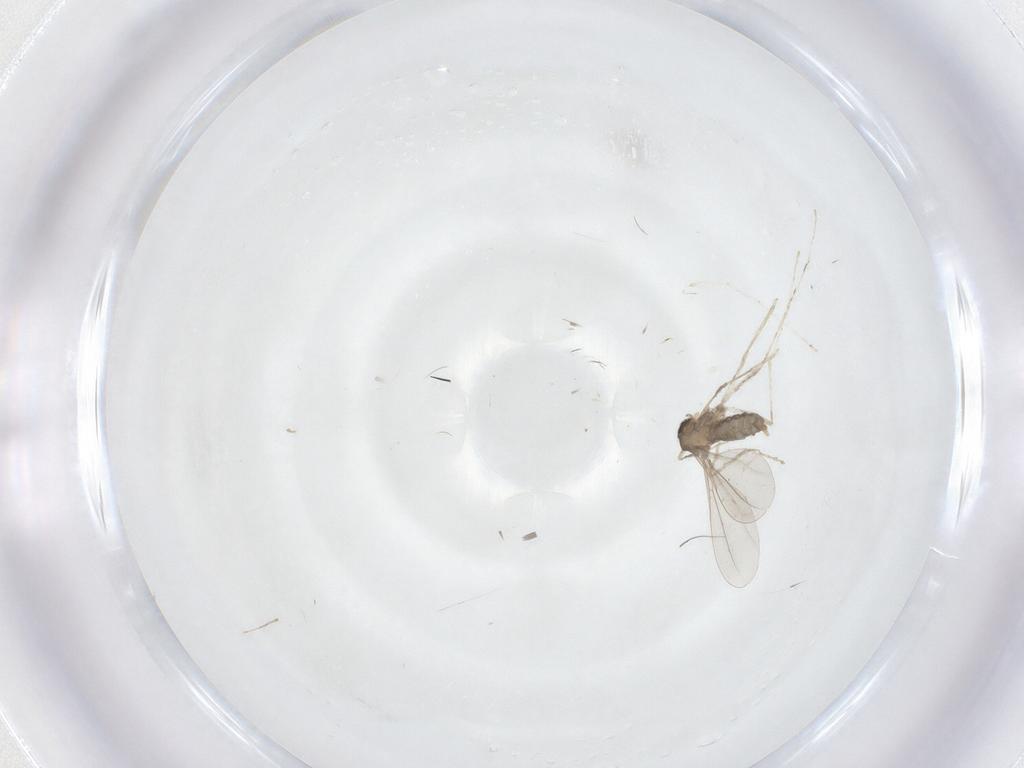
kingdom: Animalia
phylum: Arthropoda
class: Insecta
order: Diptera
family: Cecidomyiidae
